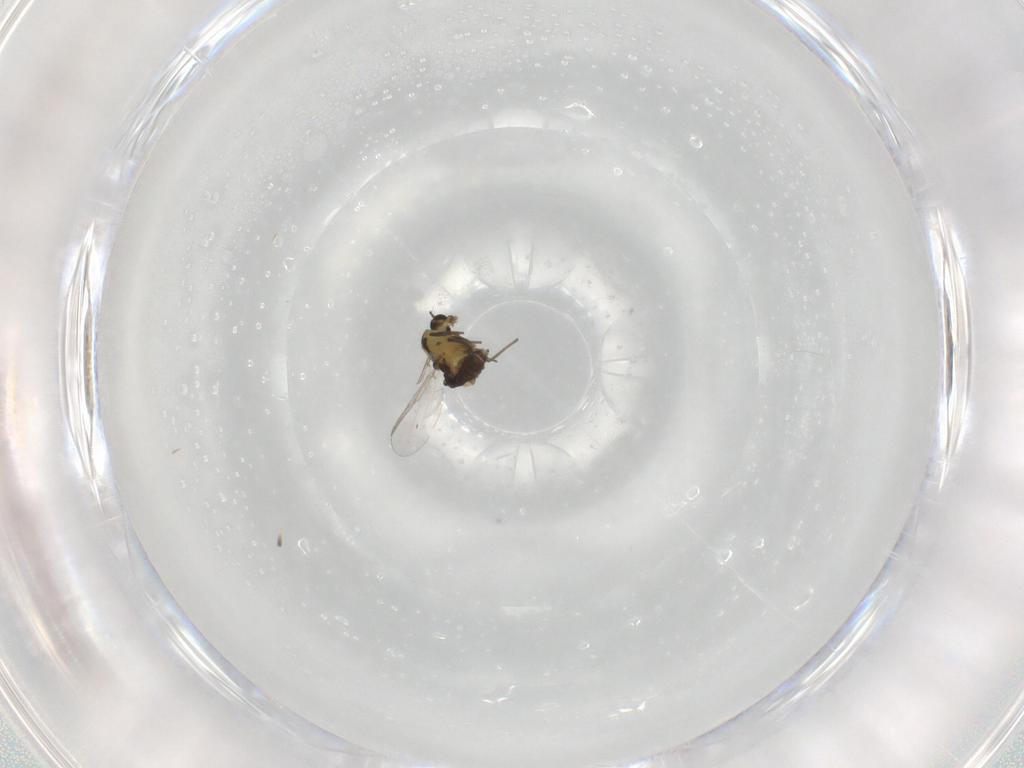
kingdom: Animalia
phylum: Arthropoda
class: Insecta
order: Diptera
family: Chironomidae
